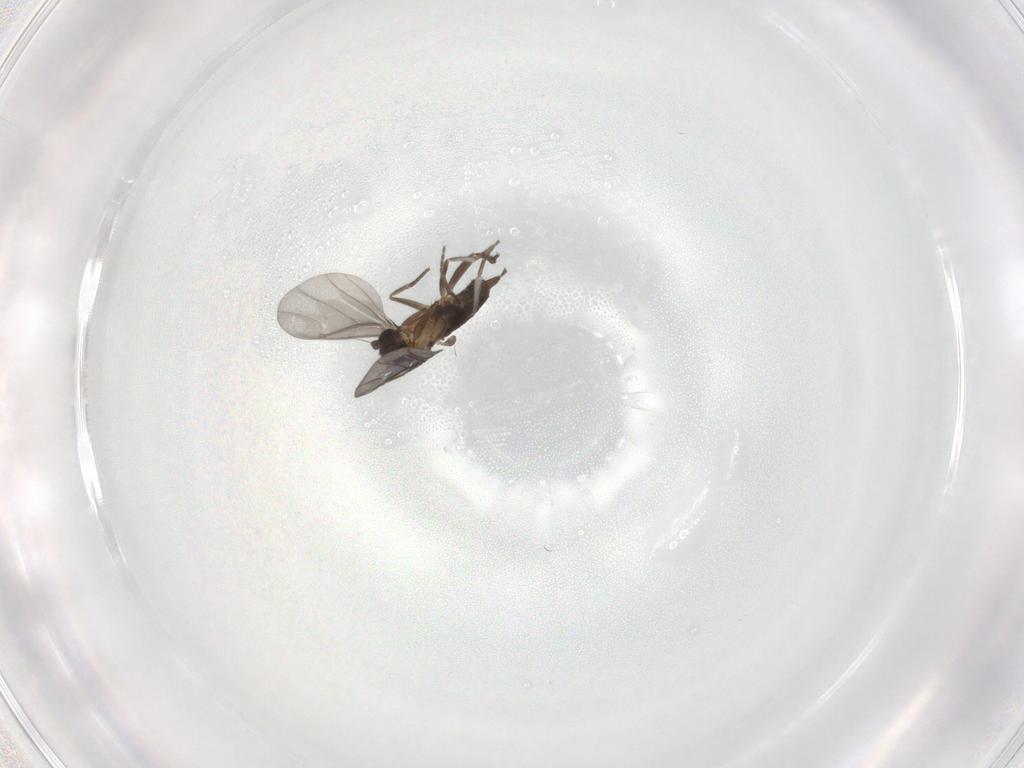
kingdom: Animalia
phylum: Arthropoda
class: Insecta
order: Diptera
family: Phoridae
